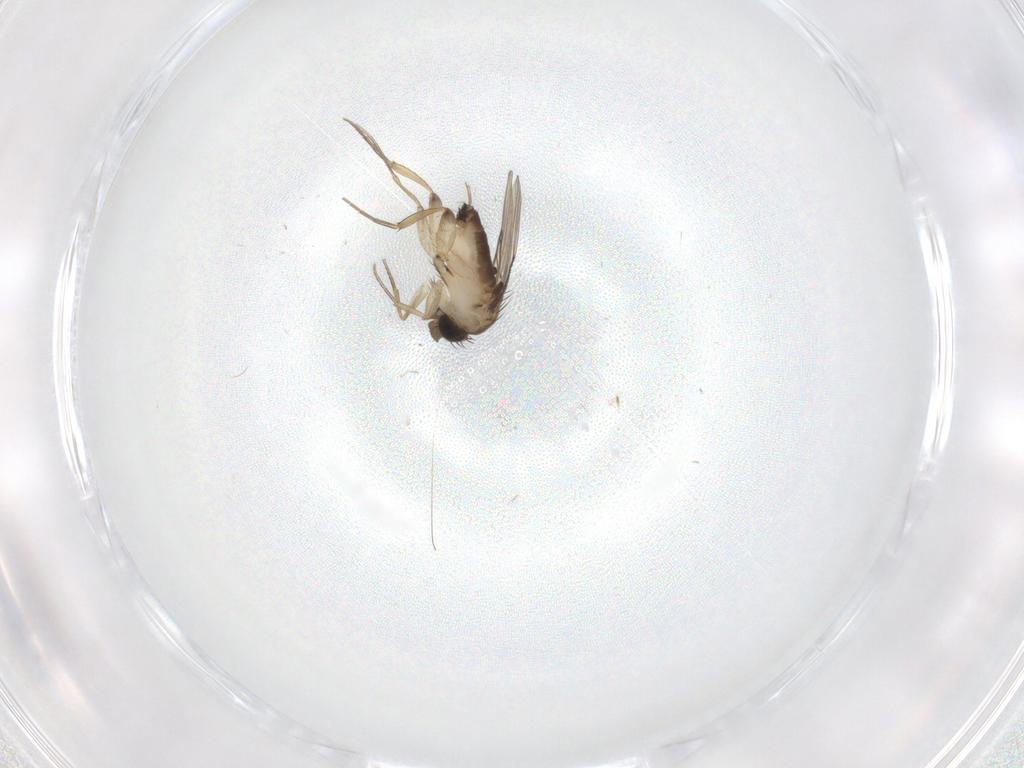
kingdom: Animalia
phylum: Arthropoda
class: Insecta
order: Diptera
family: Phoridae
